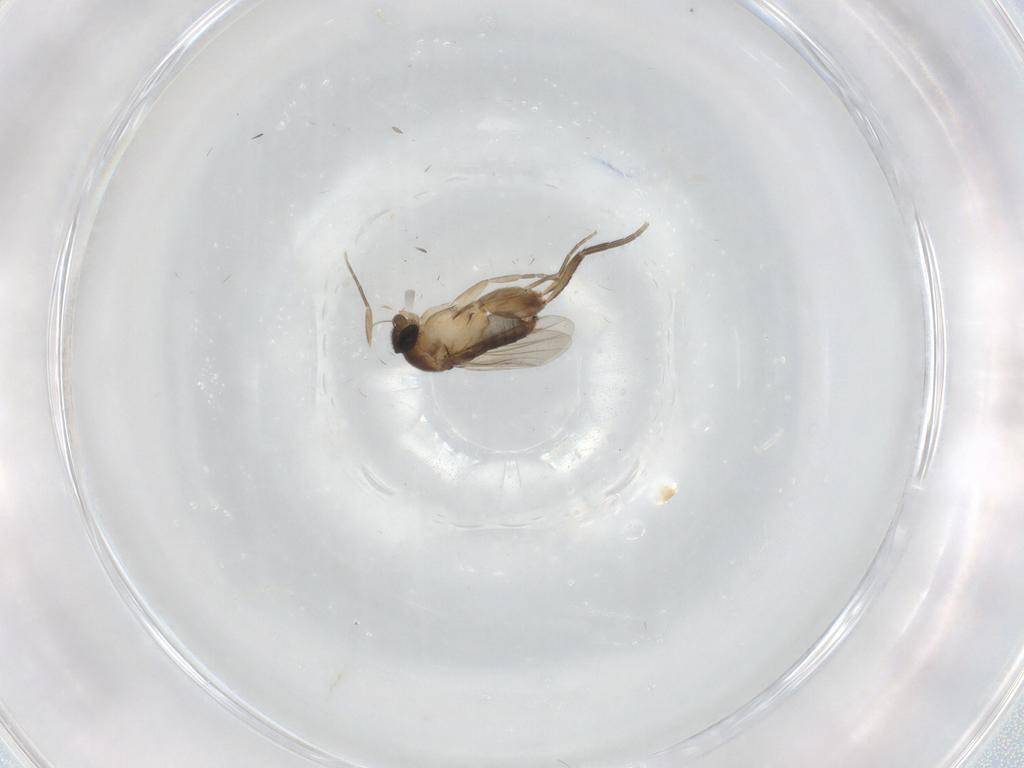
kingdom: Animalia
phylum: Arthropoda
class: Insecta
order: Diptera
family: Phoridae
